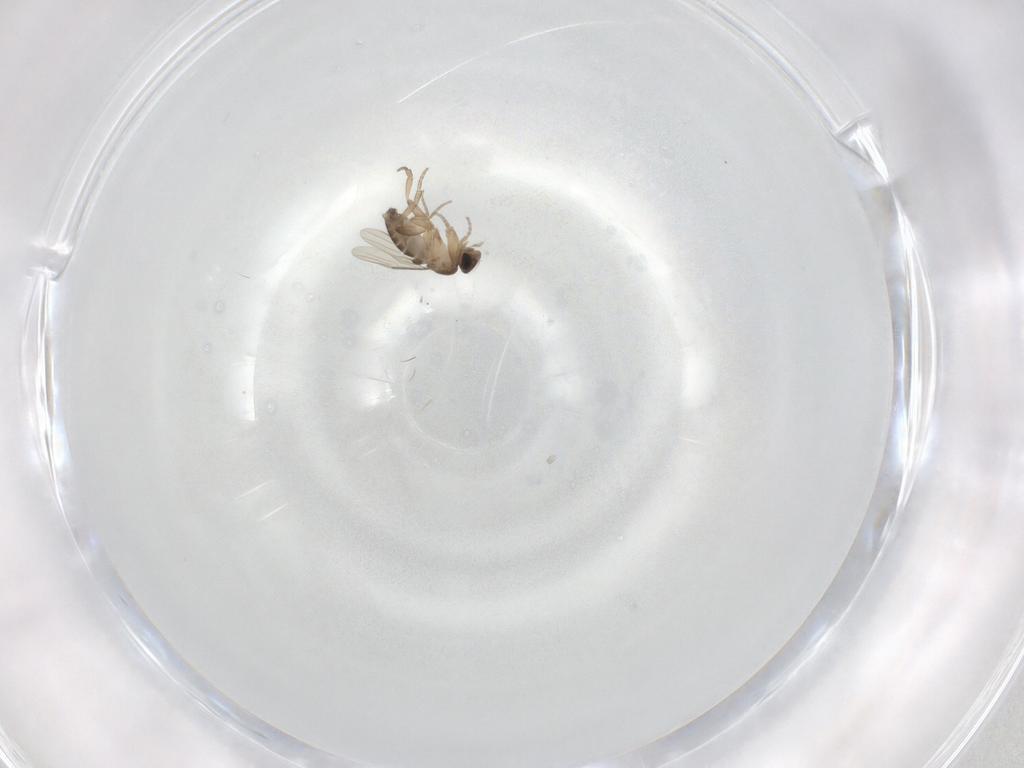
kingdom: Animalia
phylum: Arthropoda
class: Insecta
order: Diptera
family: Phoridae
